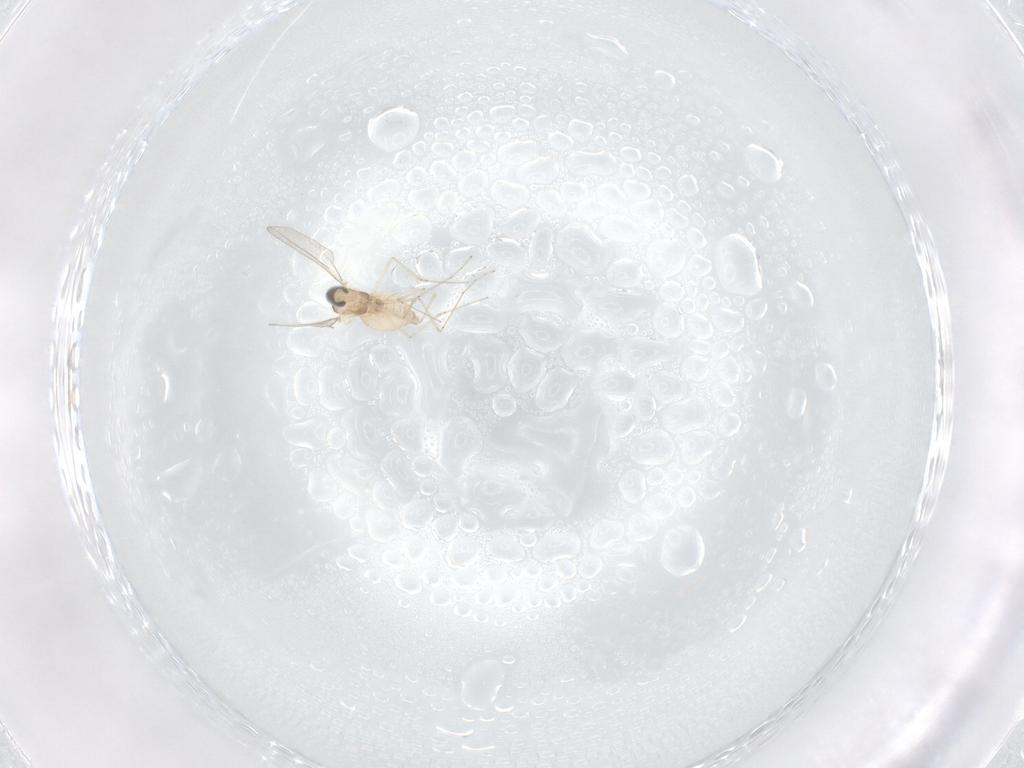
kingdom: Animalia
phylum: Arthropoda
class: Insecta
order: Diptera
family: Cecidomyiidae
